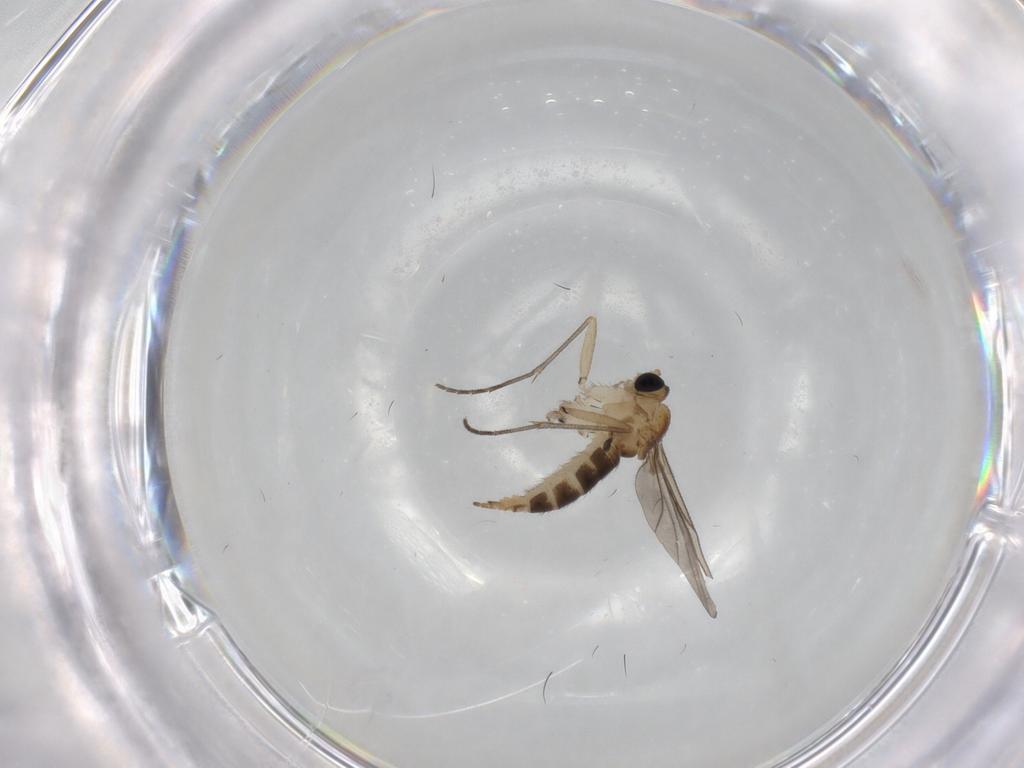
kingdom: Animalia
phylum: Arthropoda
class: Insecta
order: Diptera
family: Sciaridae
